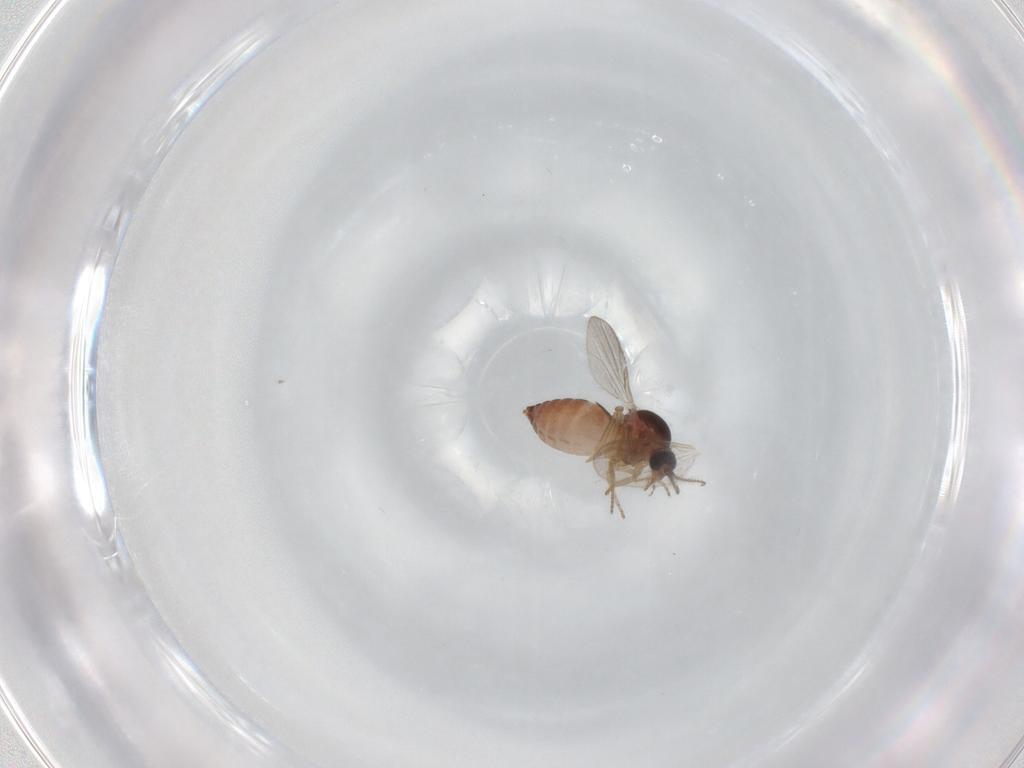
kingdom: Animalia
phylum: Arthropoda
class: Insecta
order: Diptera
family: Ceratopogonidae
